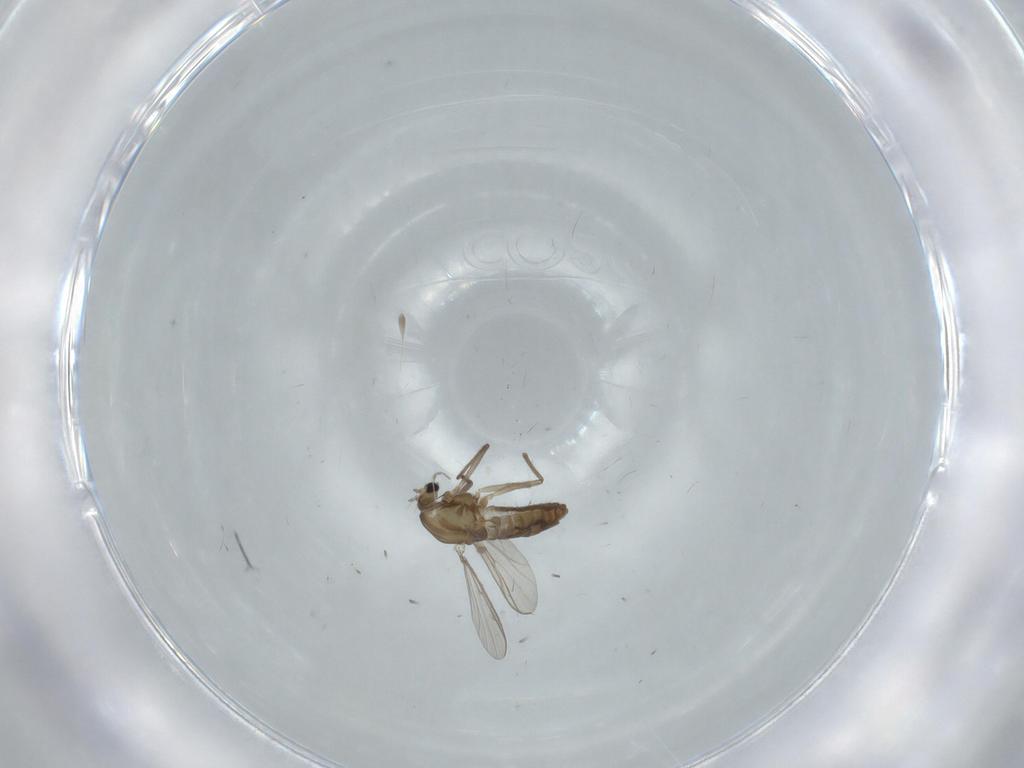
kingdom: Animalia
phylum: Arthropoda
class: Insecta
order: Diptera
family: Chironomidae
